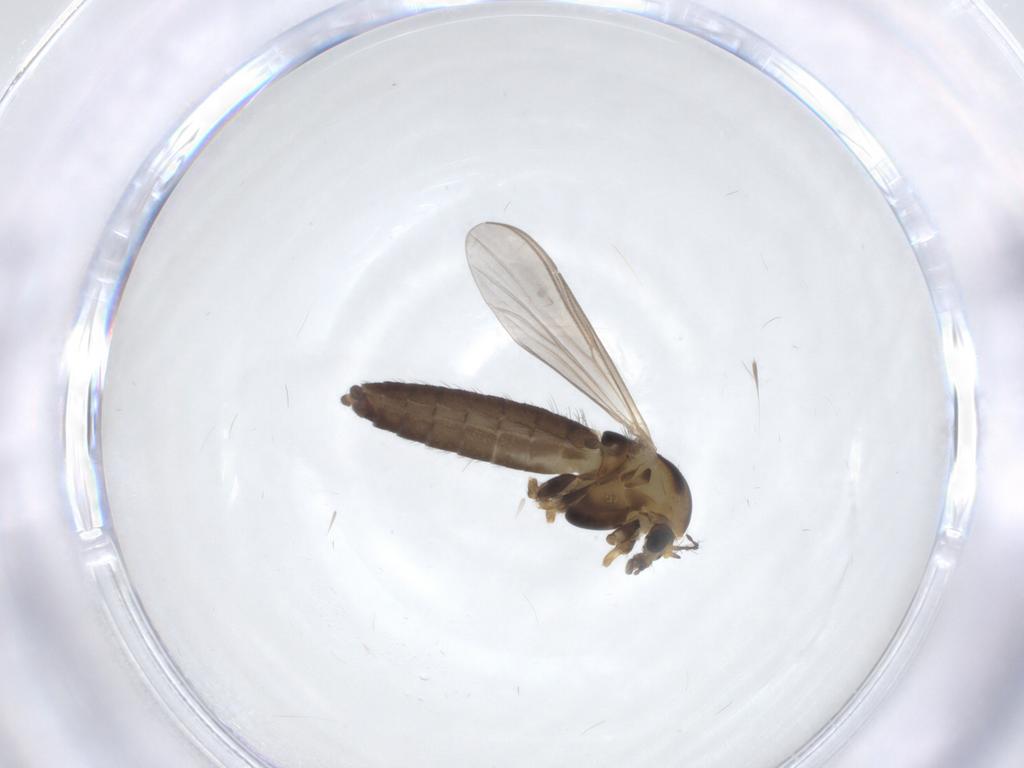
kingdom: Animalia
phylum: Arthropoda
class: Insecta
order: Diptera
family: Chironomidae
